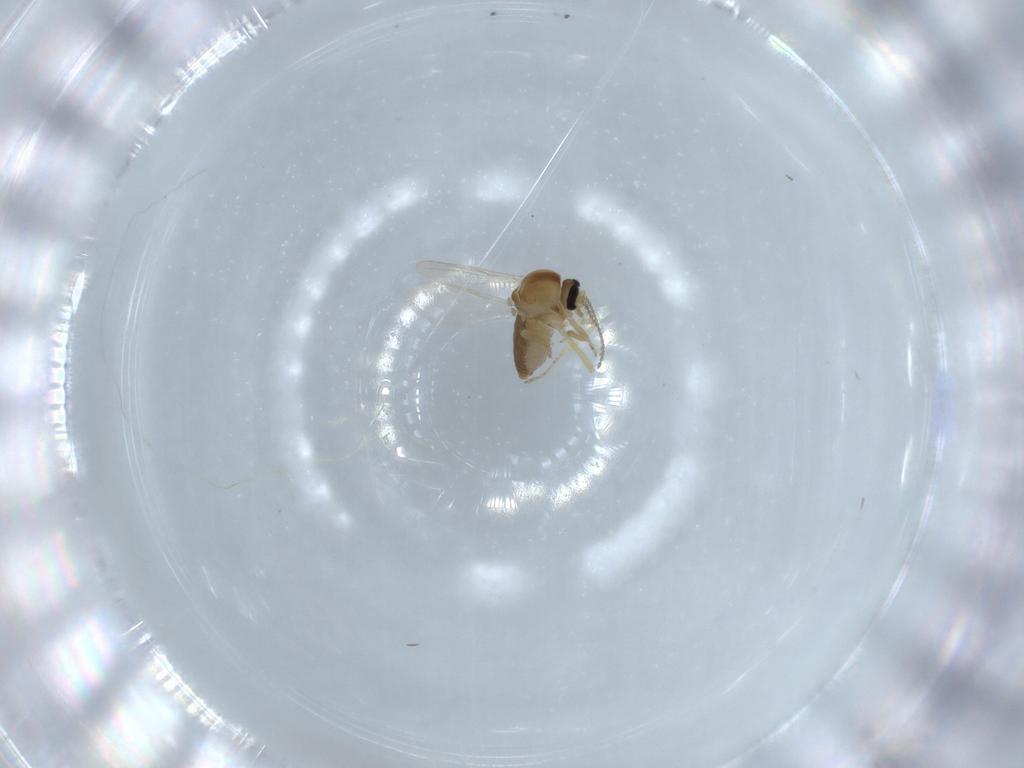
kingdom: Animalia
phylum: Arthropoda
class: Insecta
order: Diptera
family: Ceratopogonidae
